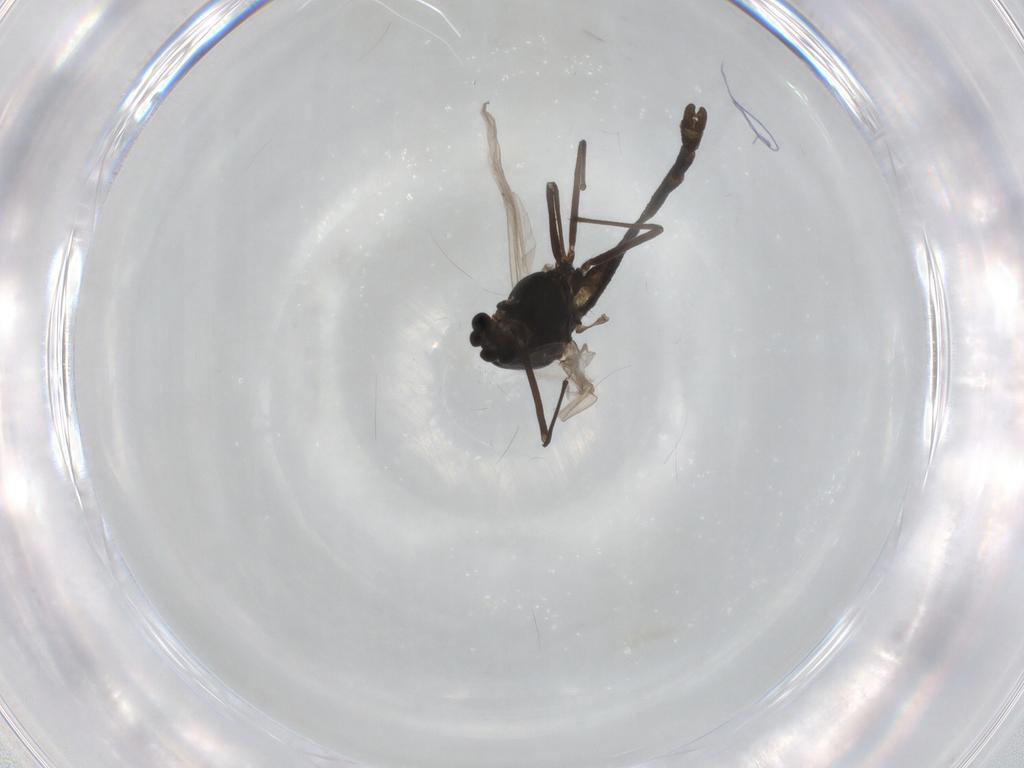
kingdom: Animalia
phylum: Arthropoda
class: Insecta
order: Diptera
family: Chironomidae
